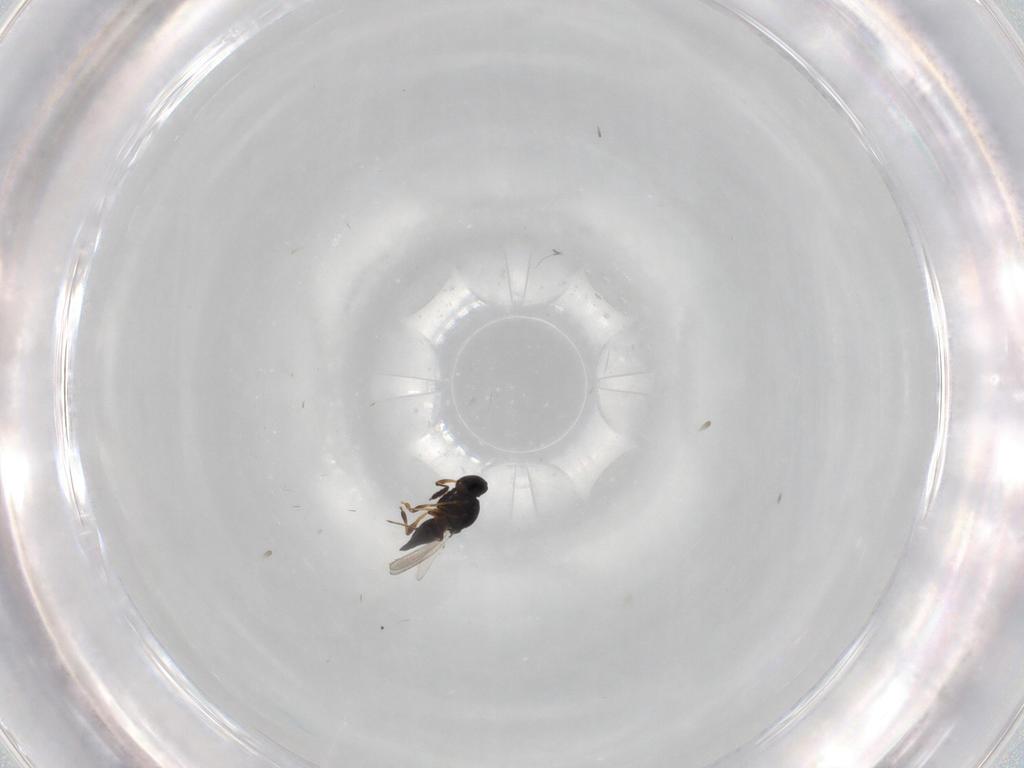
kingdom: Animalia
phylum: Arthropoda
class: Insecta
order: Hymenoptera
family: Platygastridae
